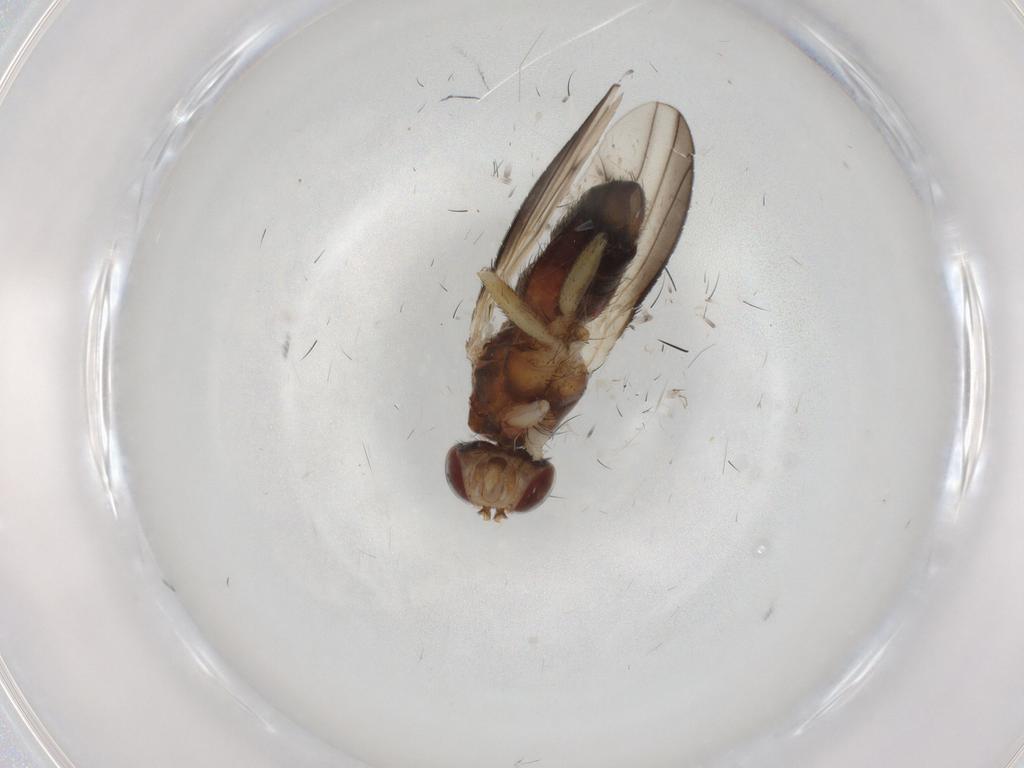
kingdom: Animalia
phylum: Arthropoda
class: Insecta
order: Diptera
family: Heleomyzidae
